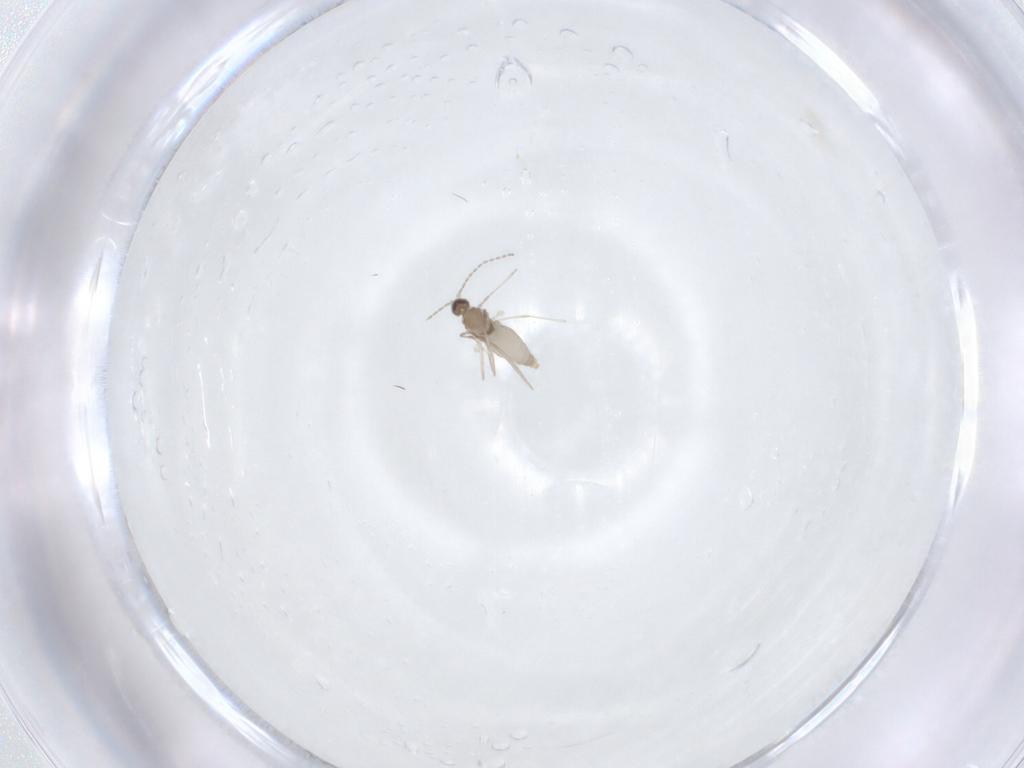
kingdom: Animalia
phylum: Arthropoda
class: Insecta
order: Diptera
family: Cecidomyiidae
